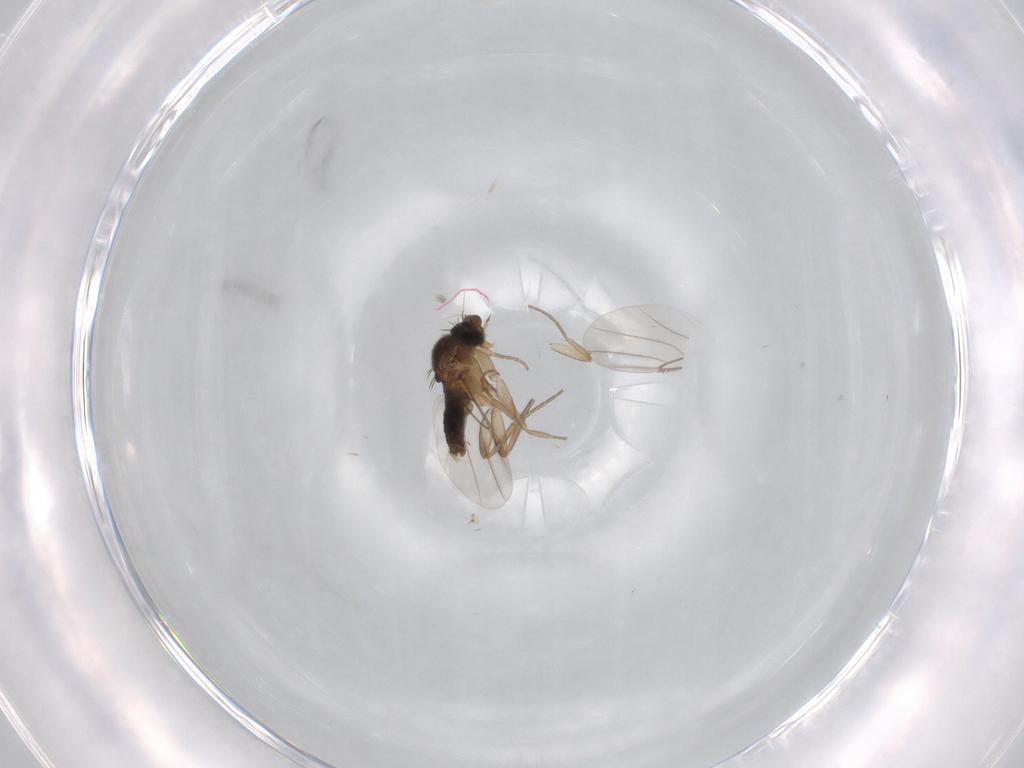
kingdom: Animalia
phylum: Arthropoda
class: Insecta
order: Diptera
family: Phoridae
